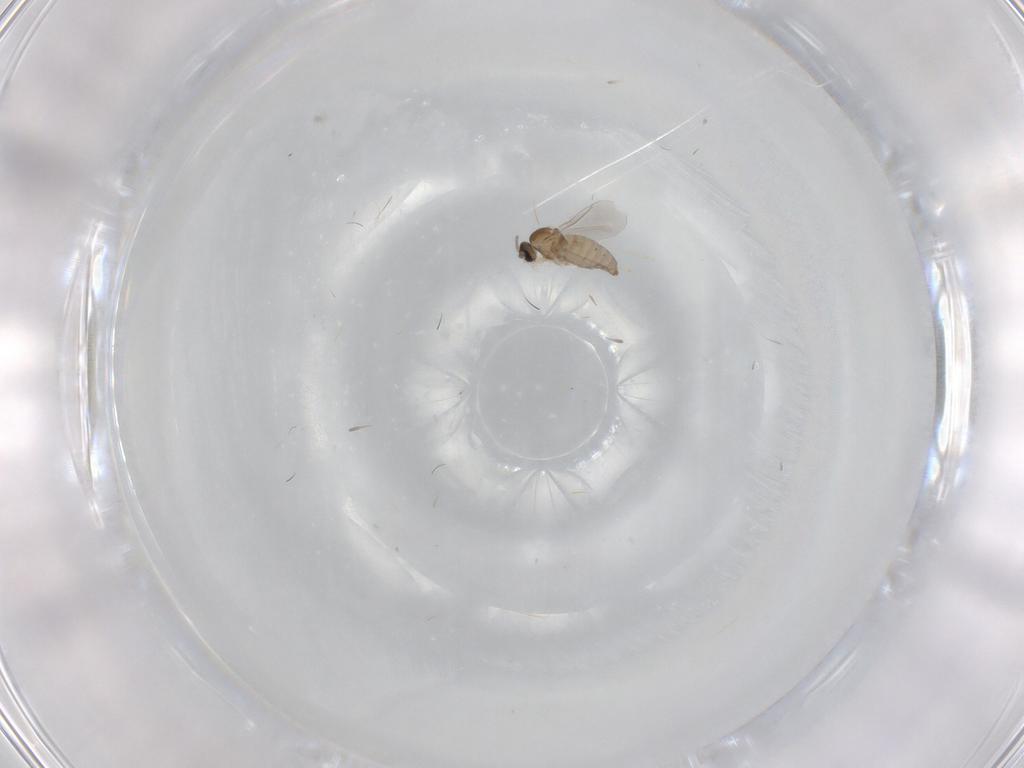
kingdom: Animalia
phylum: Arthropoda
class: Insecta
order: Diptera
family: Cecidomyiidae
